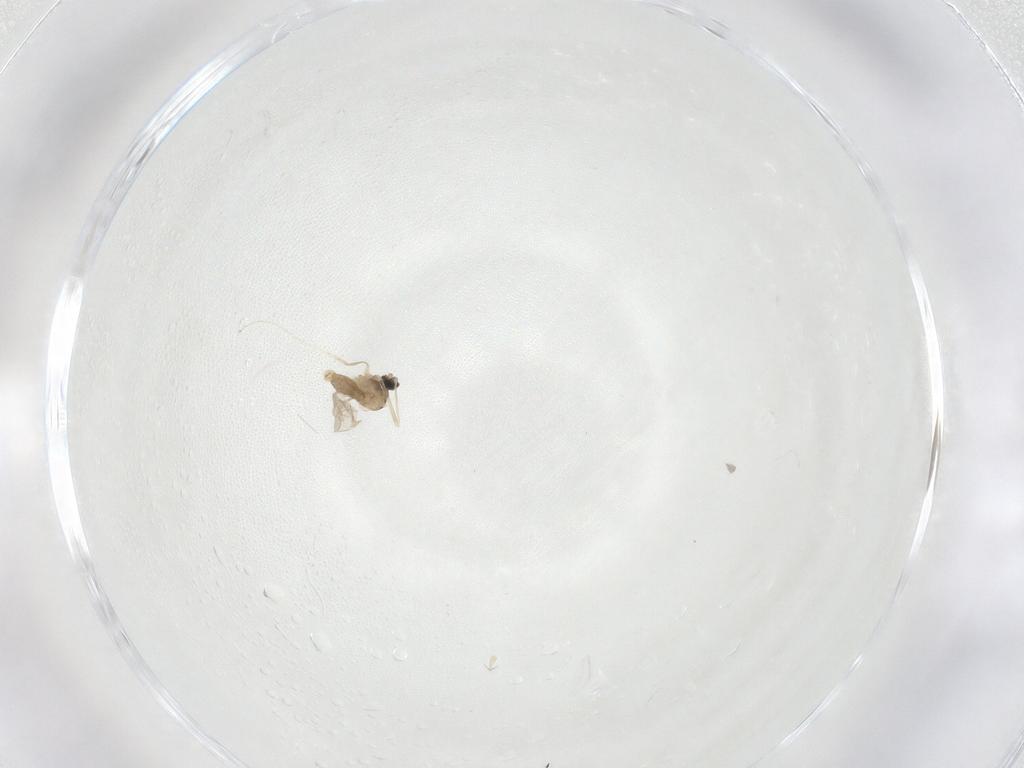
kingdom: Animalia
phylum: Arthropoda
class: Insecta
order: Diptera
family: Cecidomyiidae
